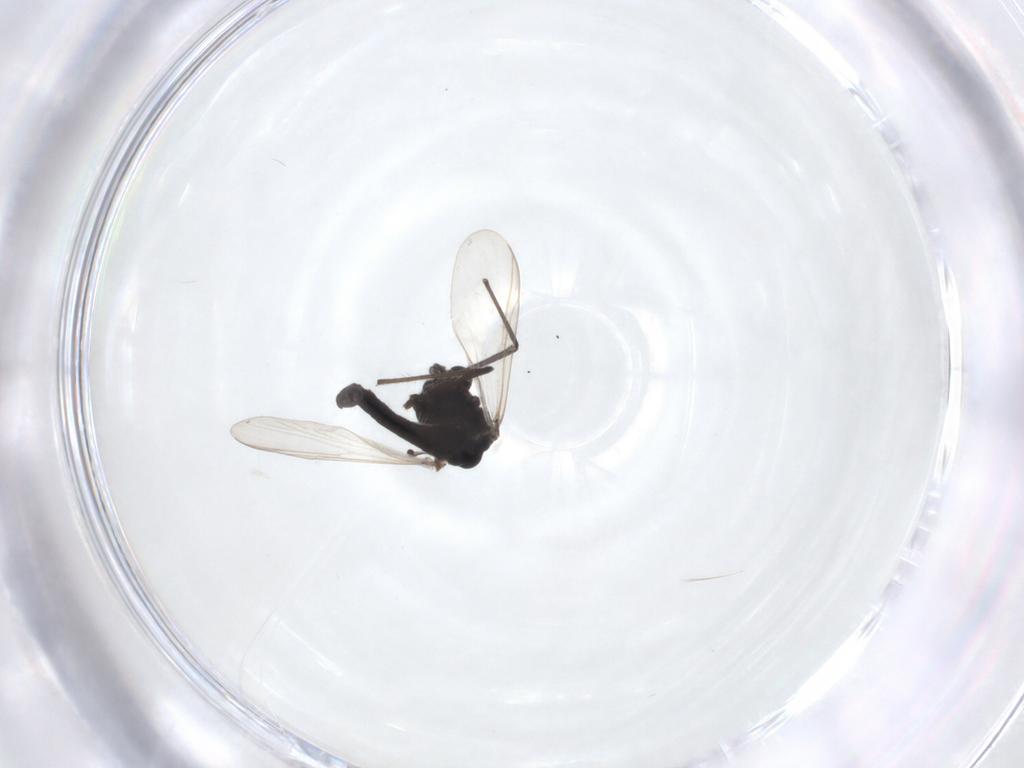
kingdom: Animalia
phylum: Arthropoda
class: Insecta
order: Diptera
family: Chironomidae
